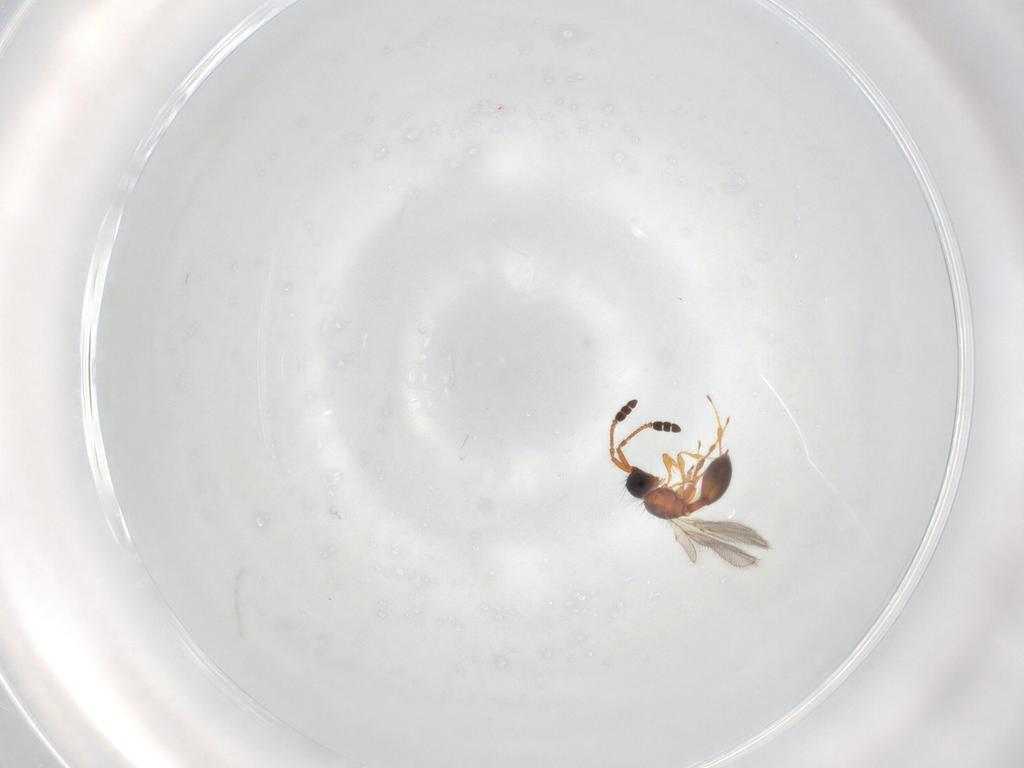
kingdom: Animalia
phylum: Arthropoda
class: Insecta
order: Hymenoptera
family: Diapriidae
